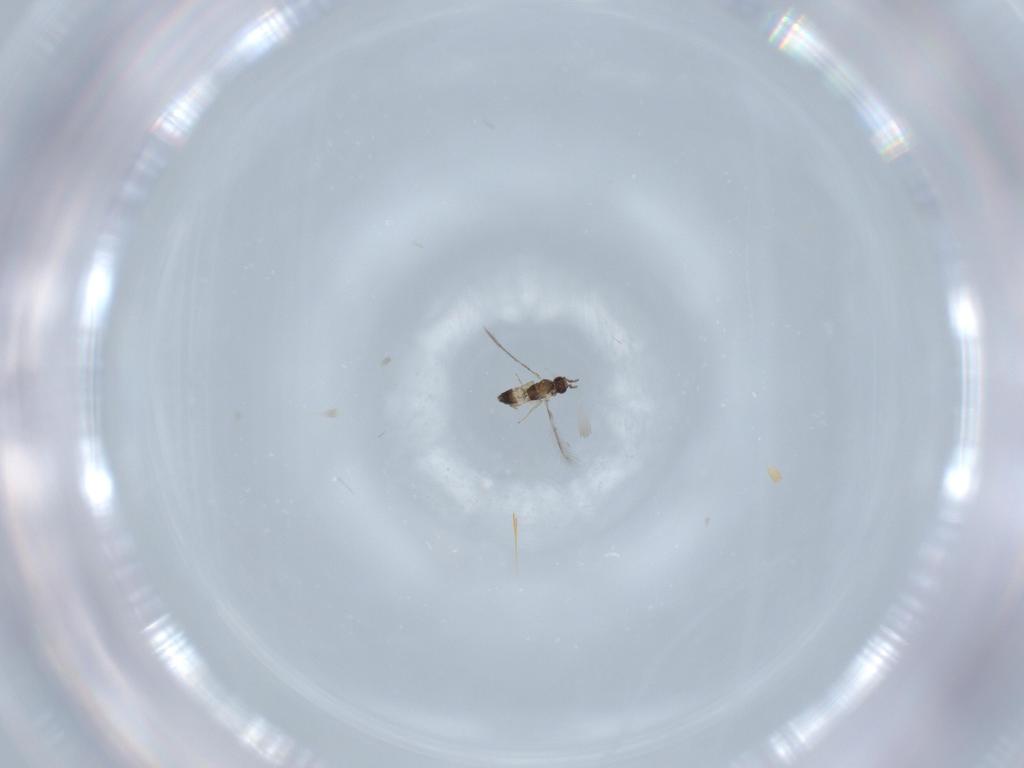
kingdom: Animalia
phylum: Arthropoda
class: Insecta
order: Hymenoptera
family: Mymaridae
